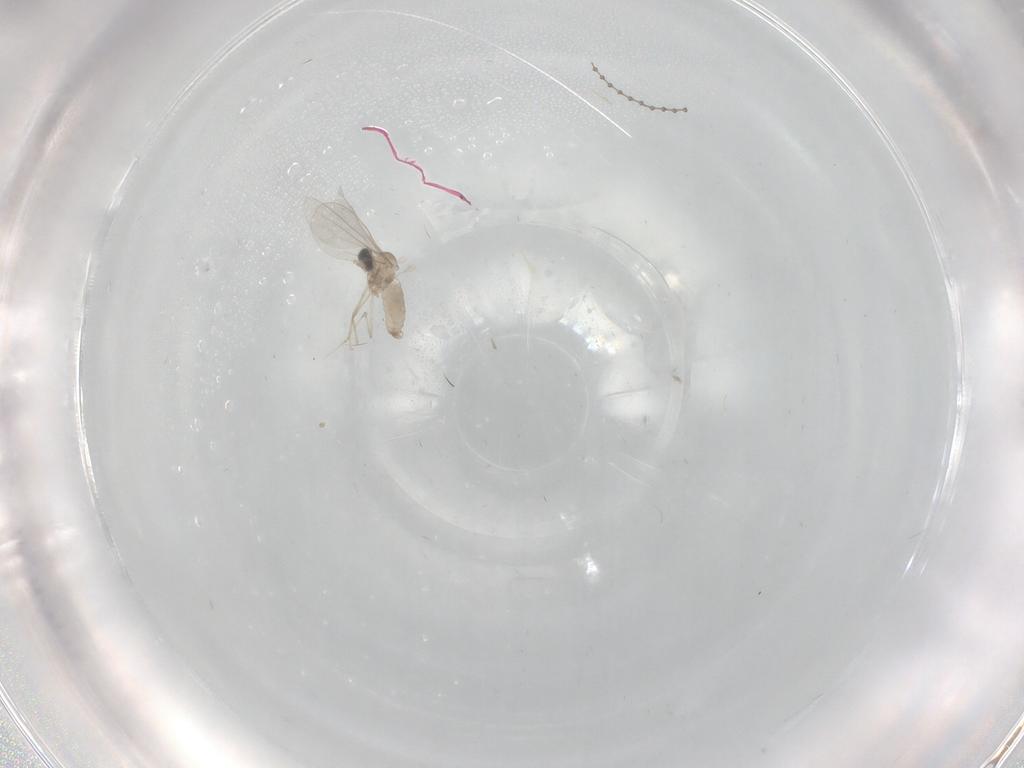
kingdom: Animalia
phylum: Arthropoda
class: Insecta
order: Diptera
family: Cecidomyiidae
